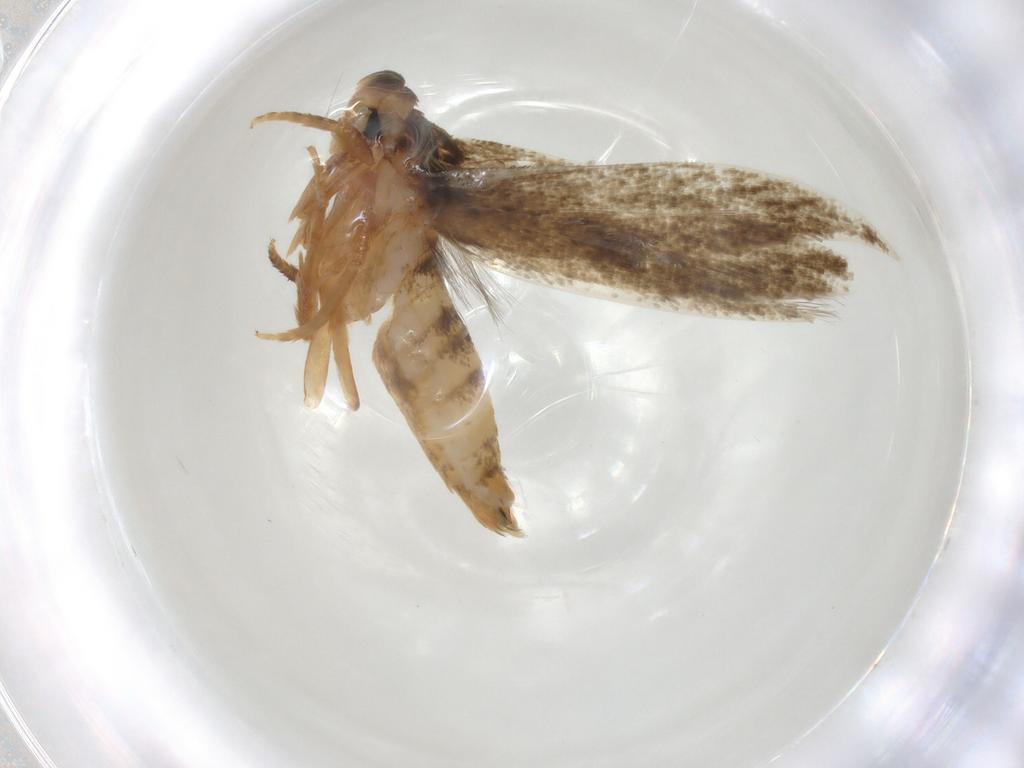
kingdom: Animalia
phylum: Arthropoda
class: Insecta
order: Lepidoptera
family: Tineidae
